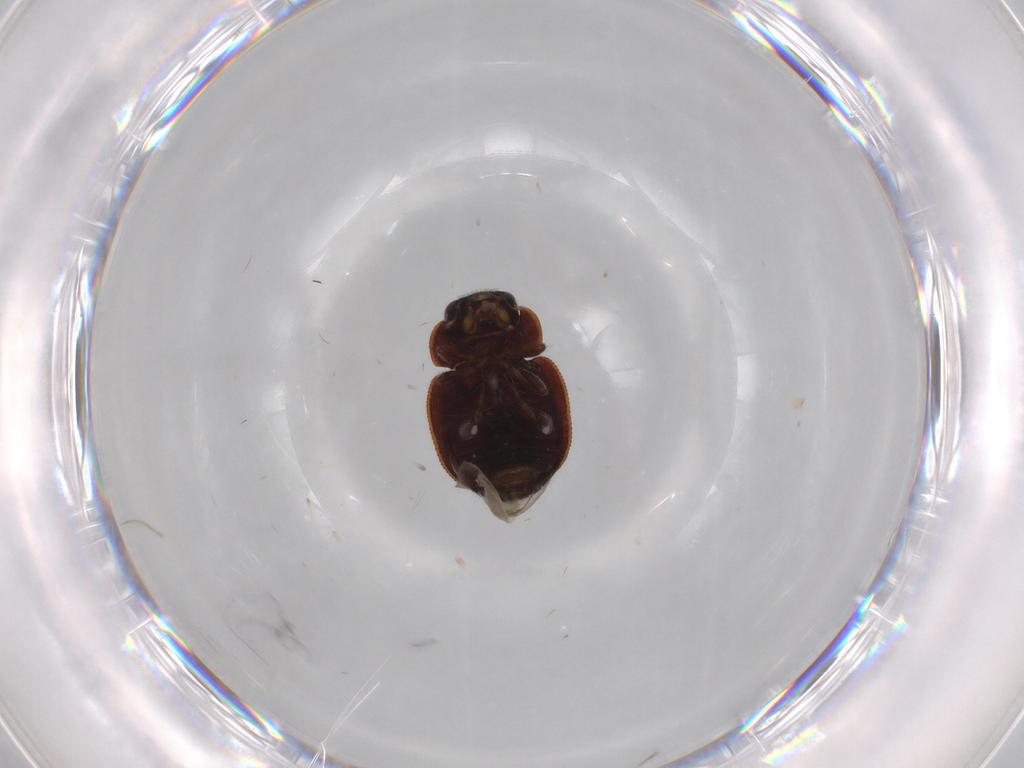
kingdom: Animalia
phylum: Arthropoda
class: Insecta
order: Coleoptera
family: Coccinellidae
